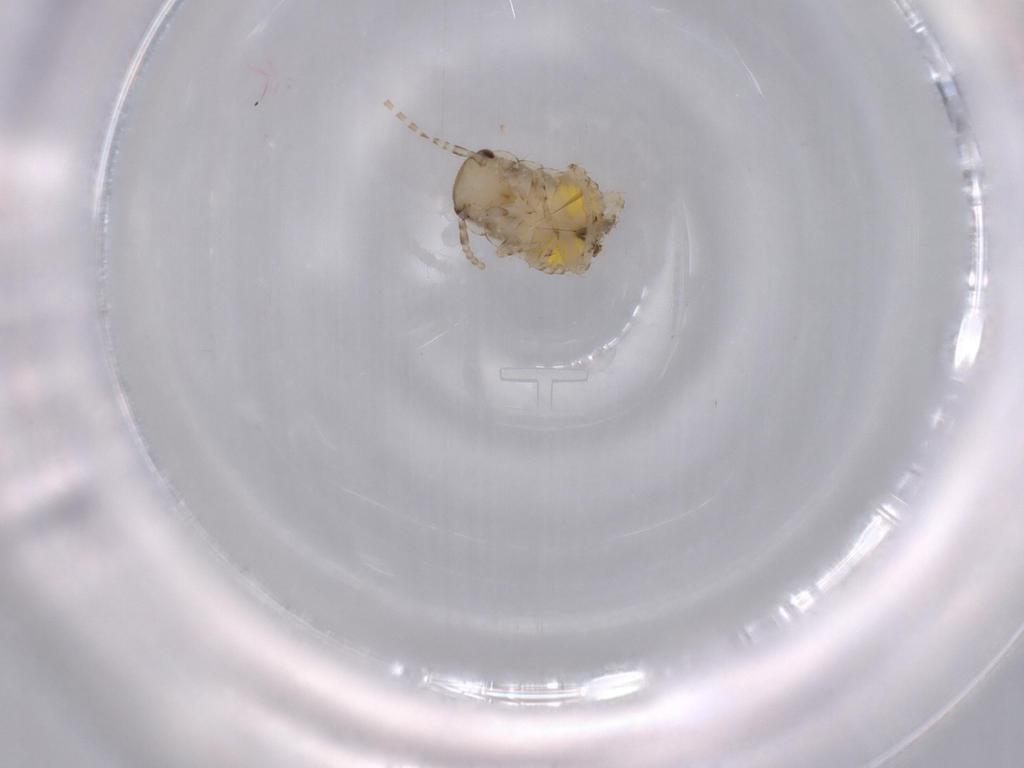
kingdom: Animalia
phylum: Arthropoda
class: Insecta
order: Blattodea
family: Ectobiidae
